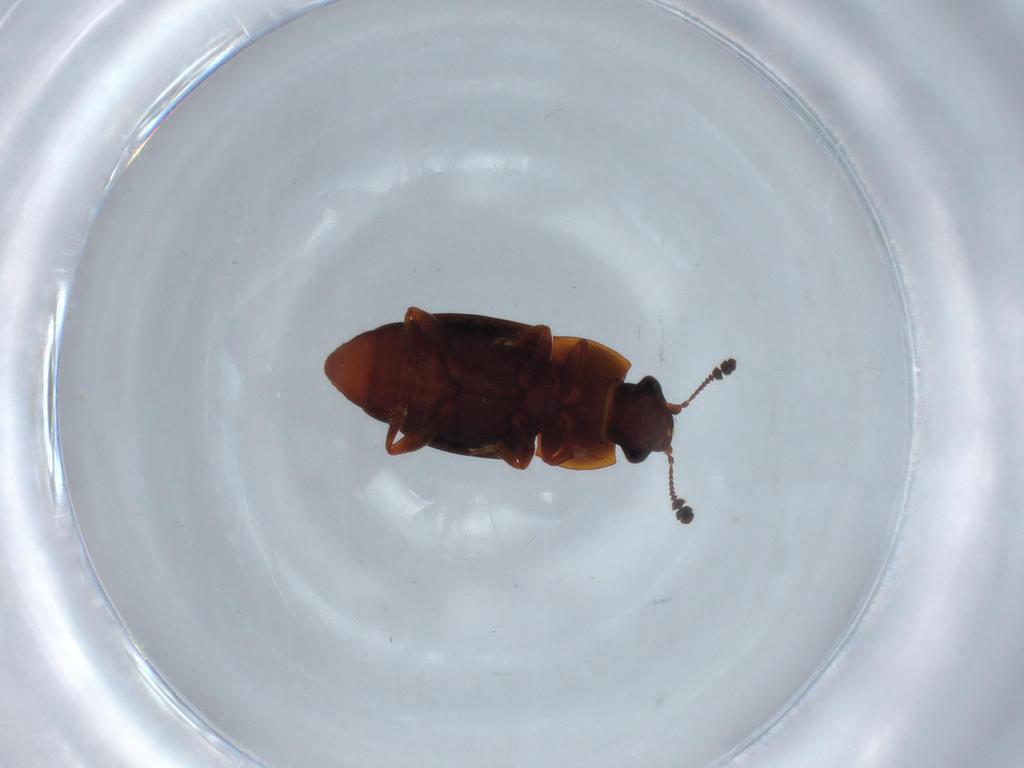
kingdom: Animalia
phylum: Arthropoda
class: Insecta
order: Coleoptera
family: Nitidulidae
